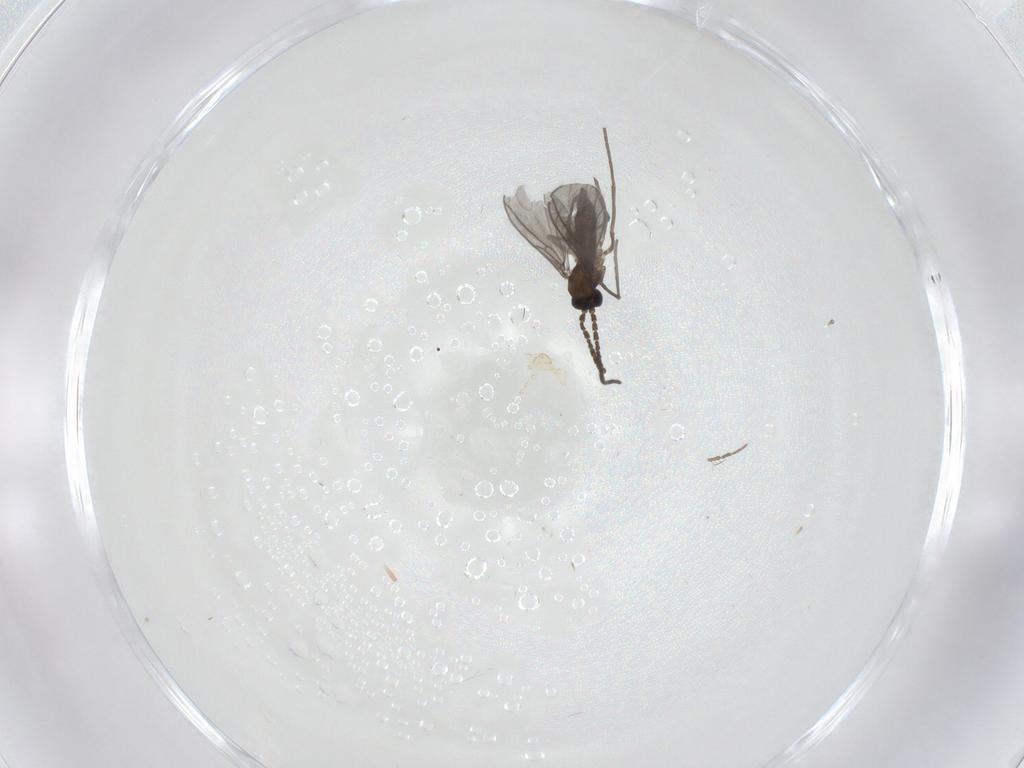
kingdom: Animalia
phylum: Arthropoda
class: Insecta
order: Diptera
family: Sciaridae
